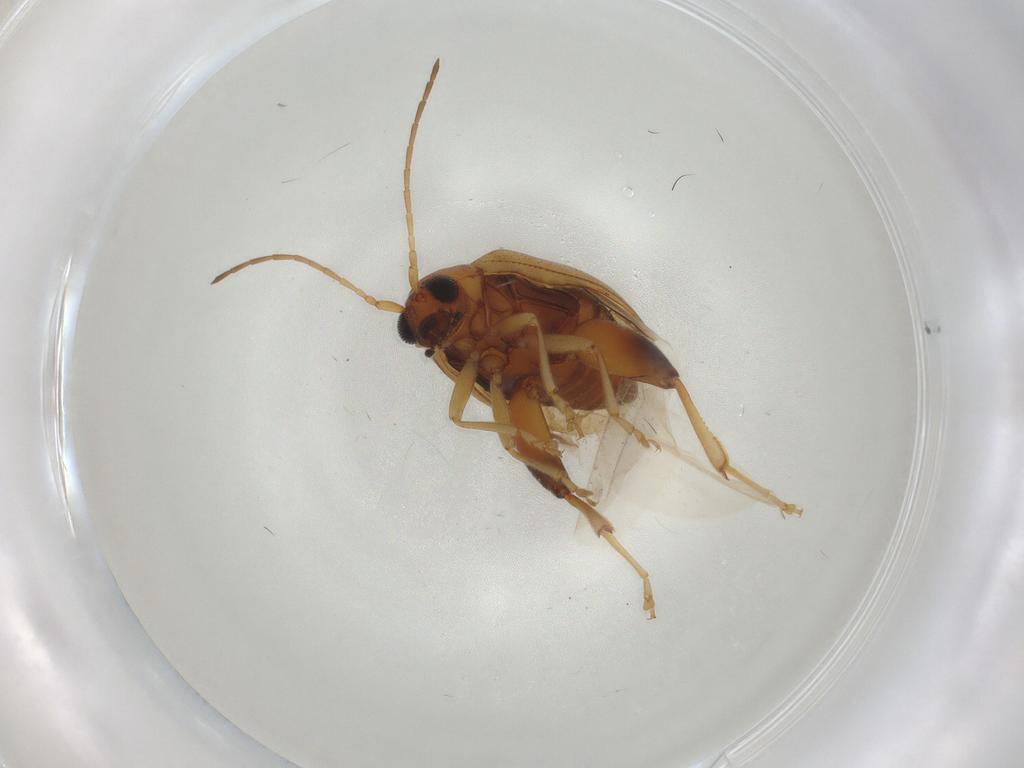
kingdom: Animalia
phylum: Arthropoda
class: Insecta
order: Coleoptera
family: Chrysomelidae
